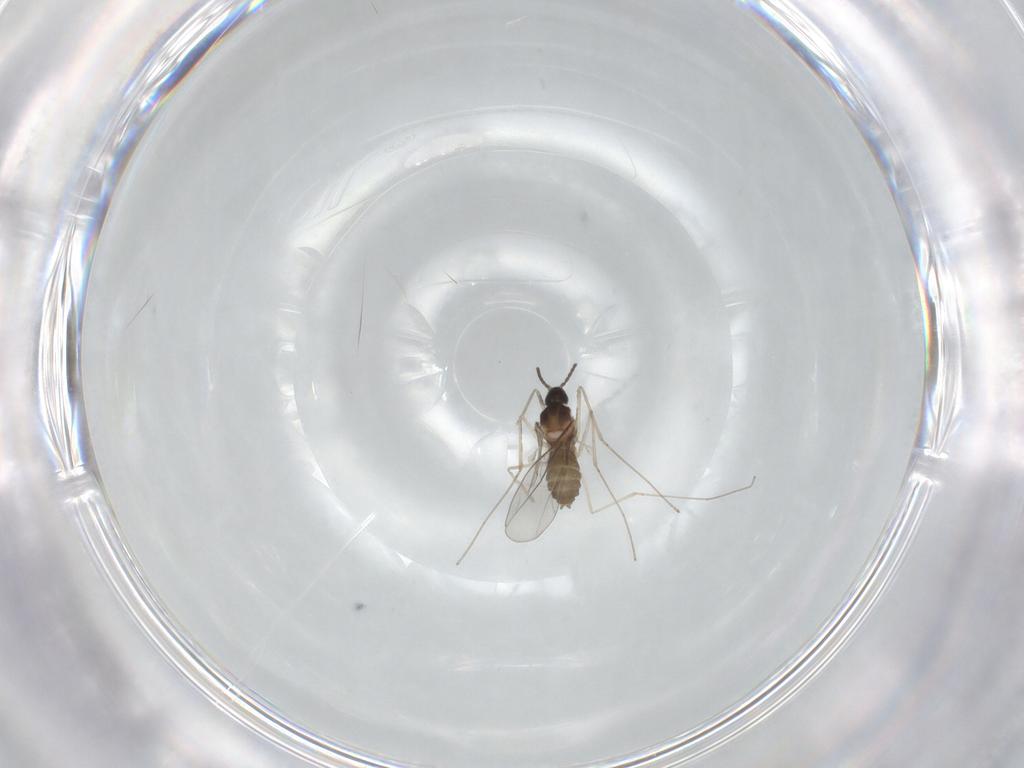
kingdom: Animalia
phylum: Arthropoda
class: Insecta
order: Diptera
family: Cecidomyiidae
